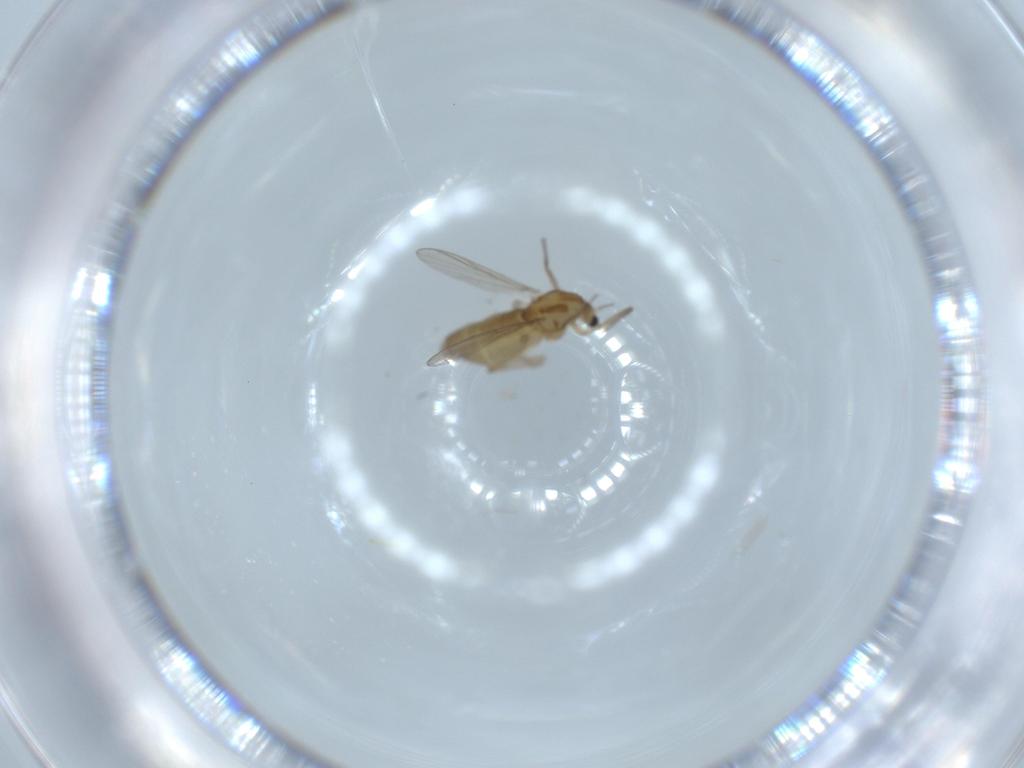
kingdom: Animalia
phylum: Arthropoda
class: Insecta
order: Diptera
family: Chironomidae
